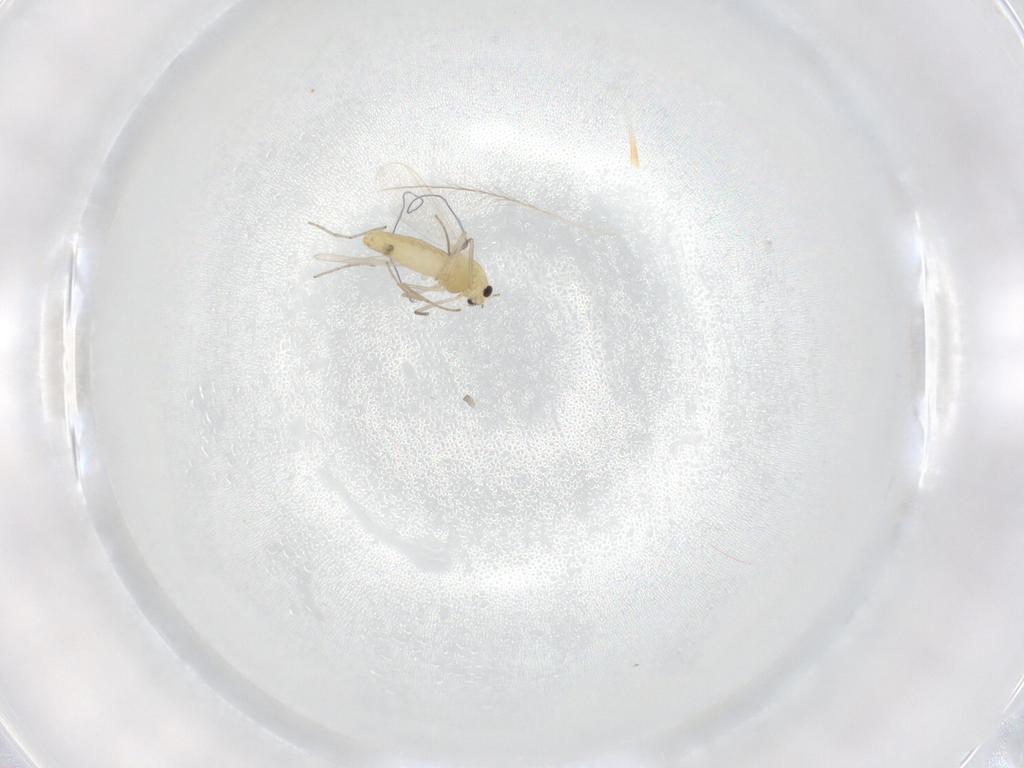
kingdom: Animalia
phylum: Arthropoda
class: Insecta
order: Diptera
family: Chironomidae
